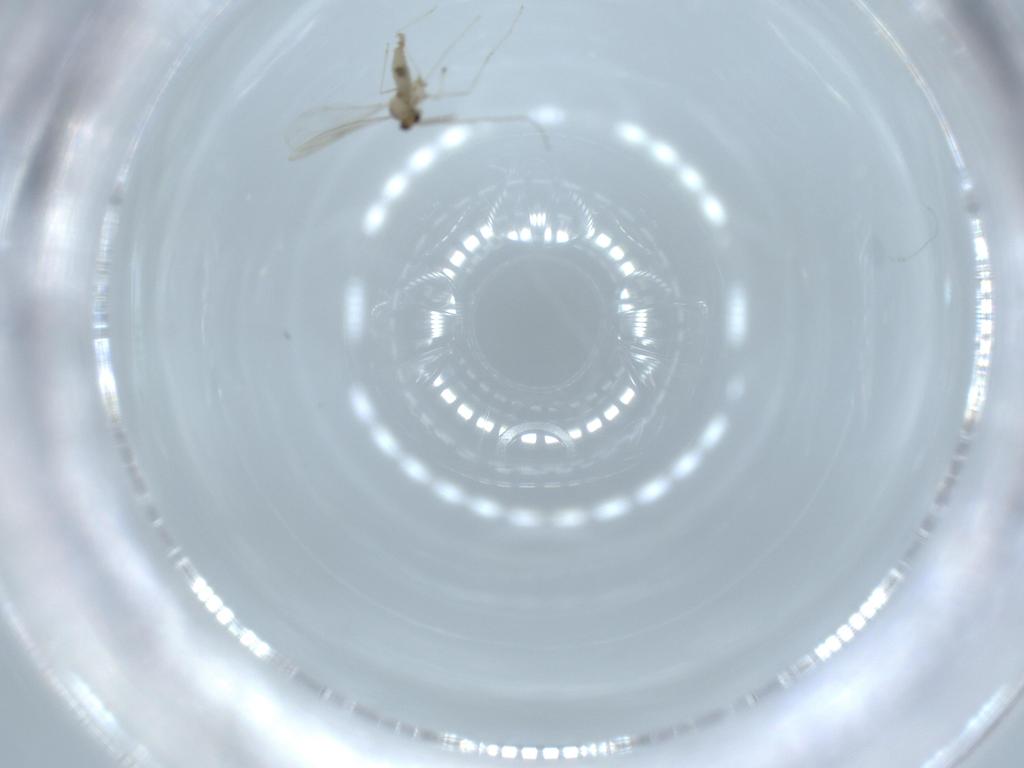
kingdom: Animalia
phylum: Arthropoda
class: Insecta
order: Diptera
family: Cecidomyiidae
